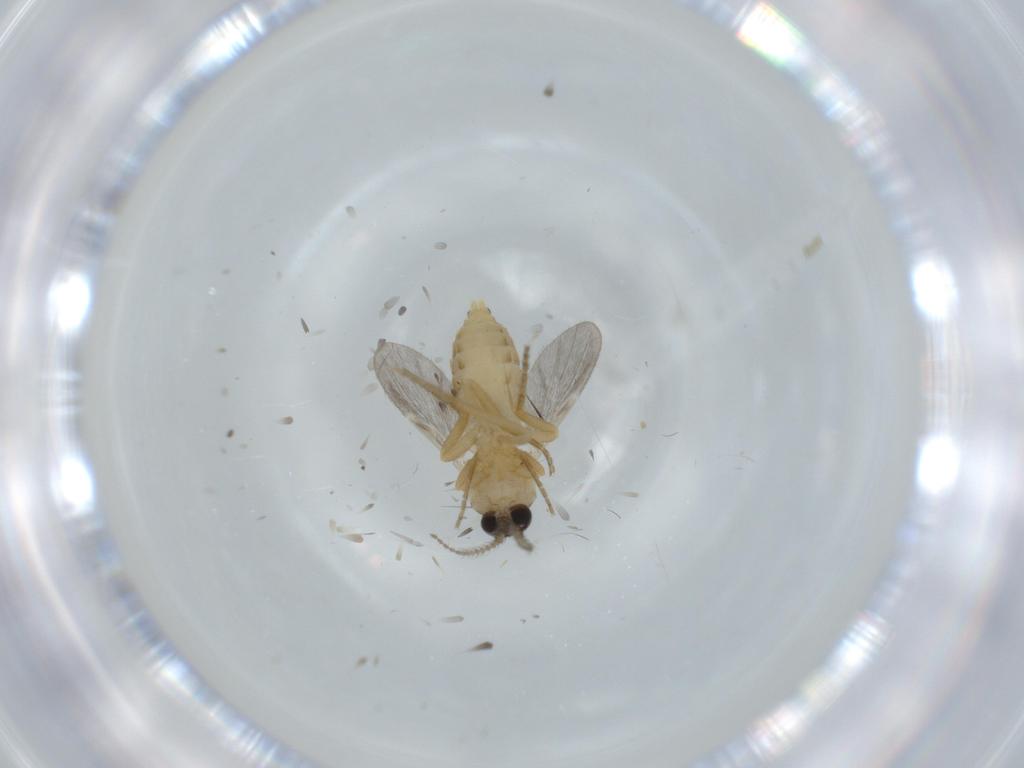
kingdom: Animalia
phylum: Arthropoda
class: Insecta
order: Diptera
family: Ceratopogonidae
